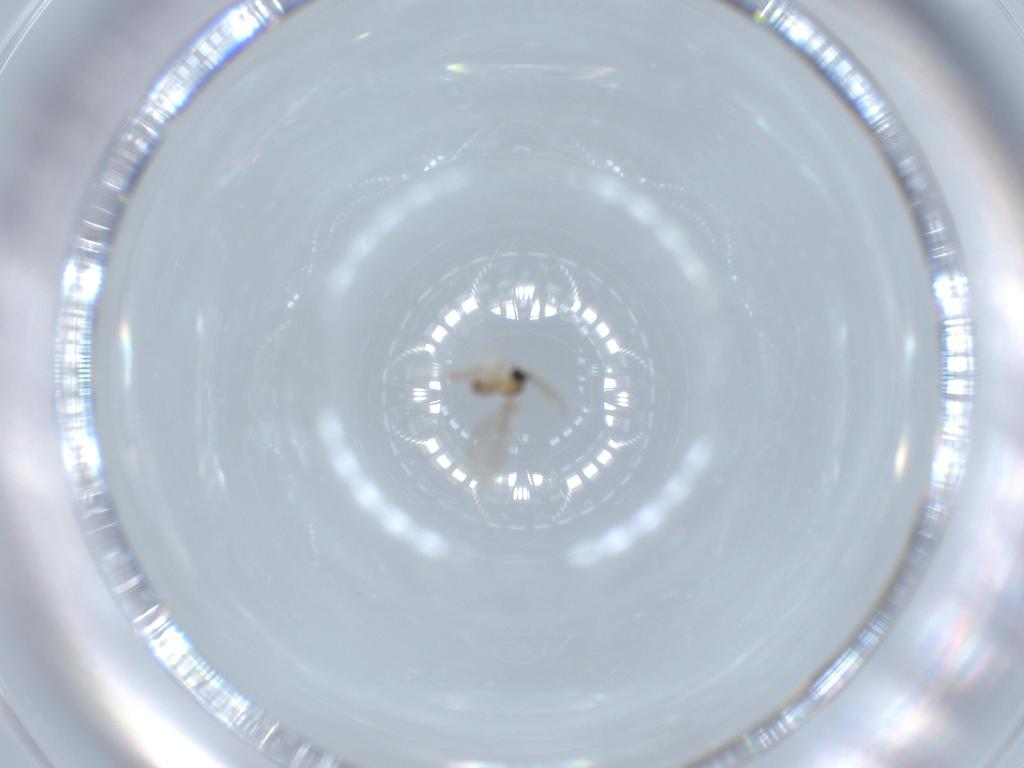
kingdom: Animalia
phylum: Arthropoda
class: Insecta
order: Diptera
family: Cecidomyiidae
